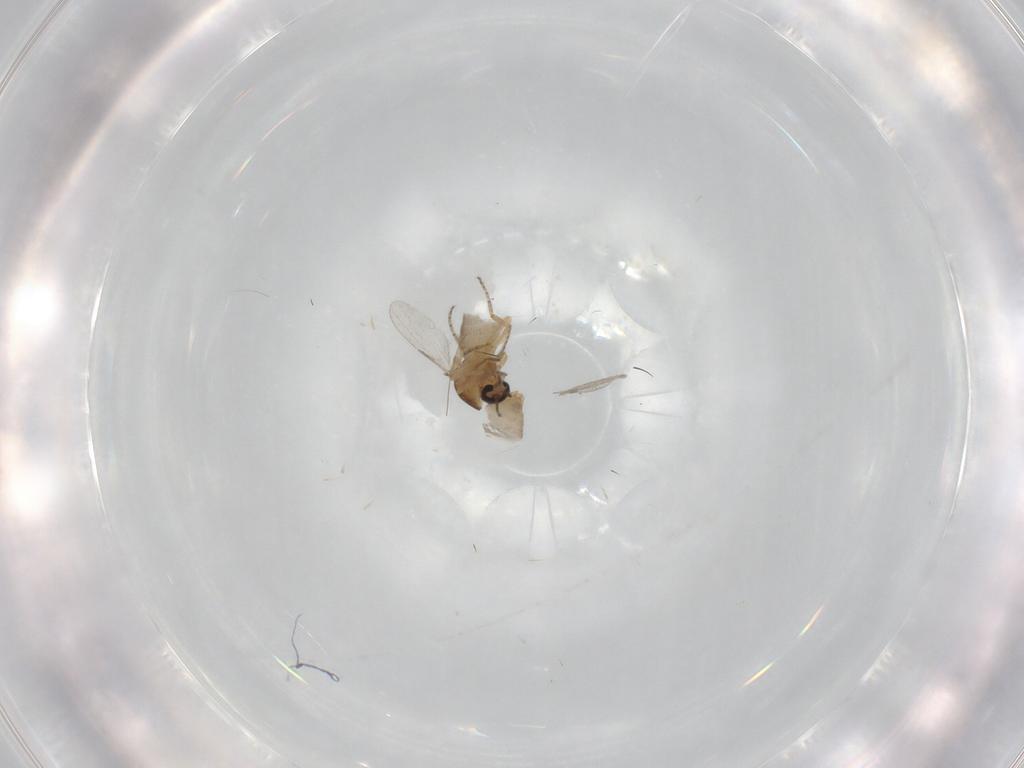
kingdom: Animalia
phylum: Arthropoda
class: Insecta
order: Diptera
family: Ceratopogonidae
